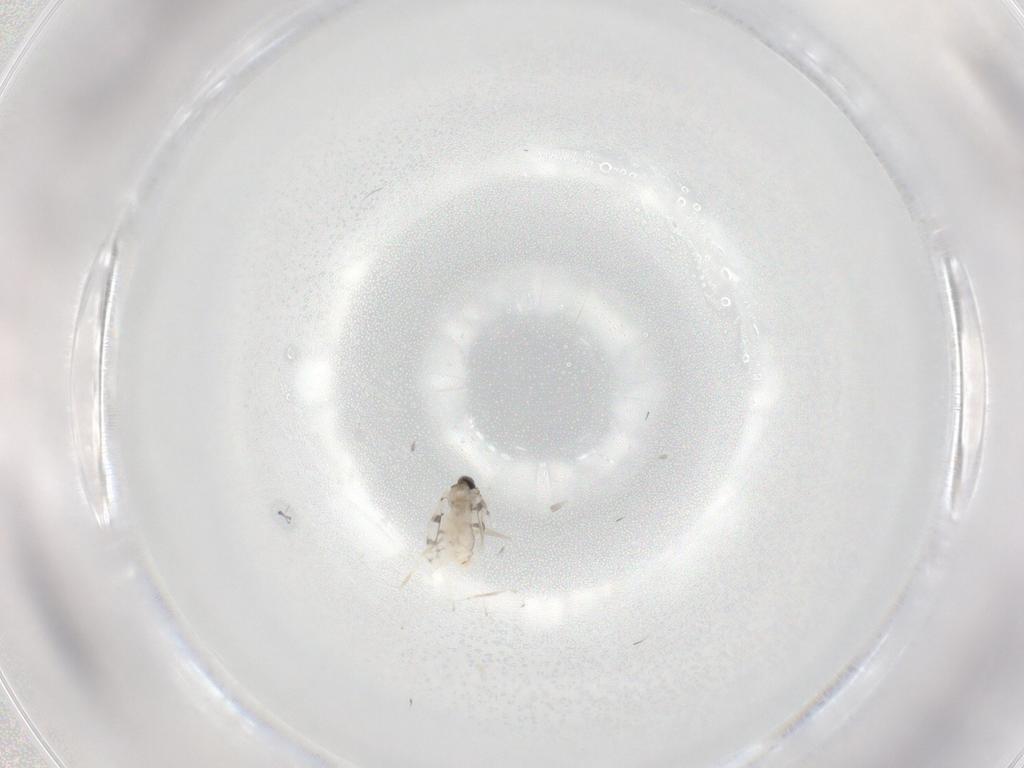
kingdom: Animalia
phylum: Arthropoda
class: Insecta
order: Diptera
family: Cecidomyiidae
